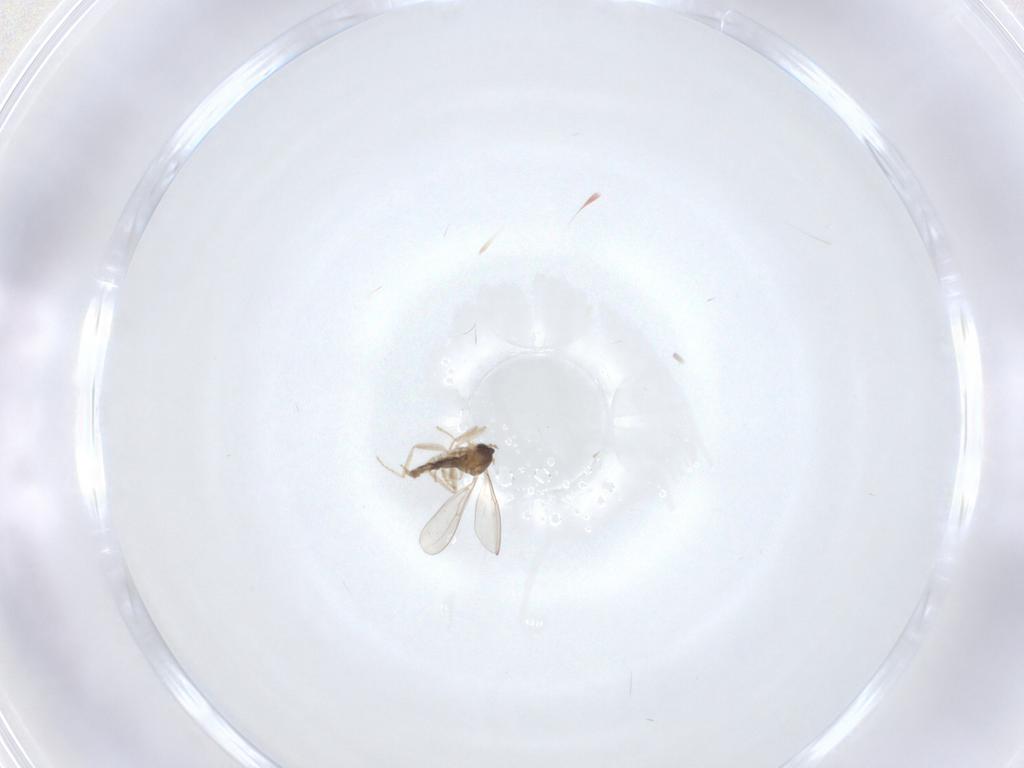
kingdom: Animalia
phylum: Arthropoda
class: Insecta
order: Diptera
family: Cecidomyiidae
